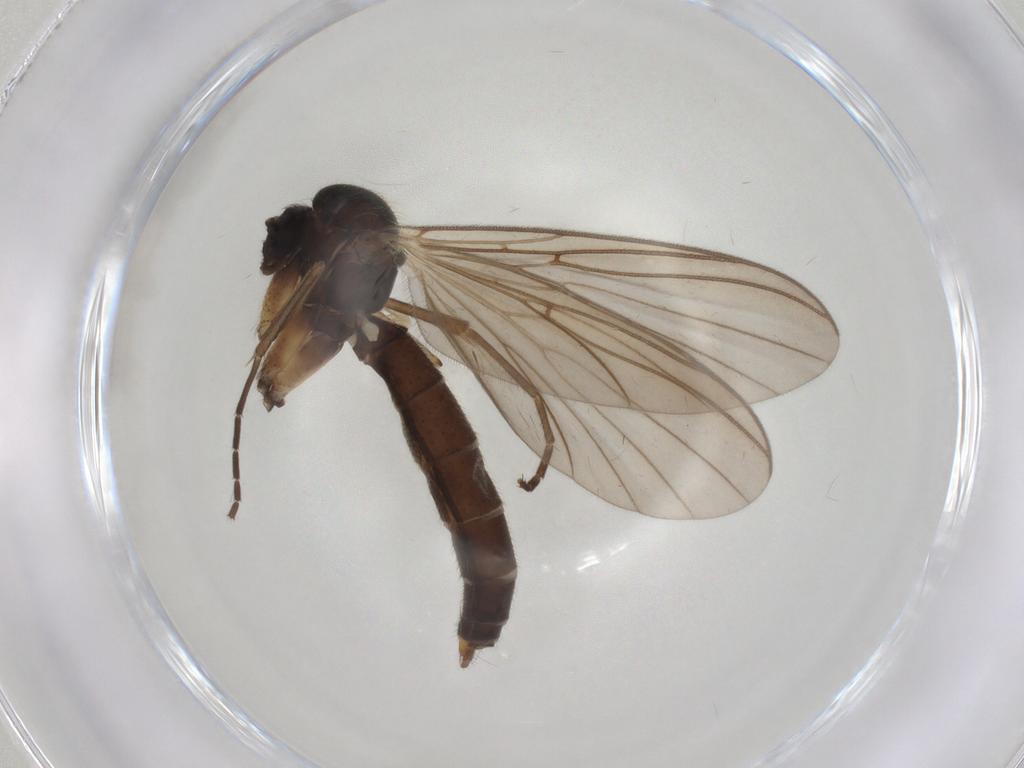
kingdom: Animalia
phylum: Arthropoda
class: Insecta
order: Diptera
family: Mycetophilidae
